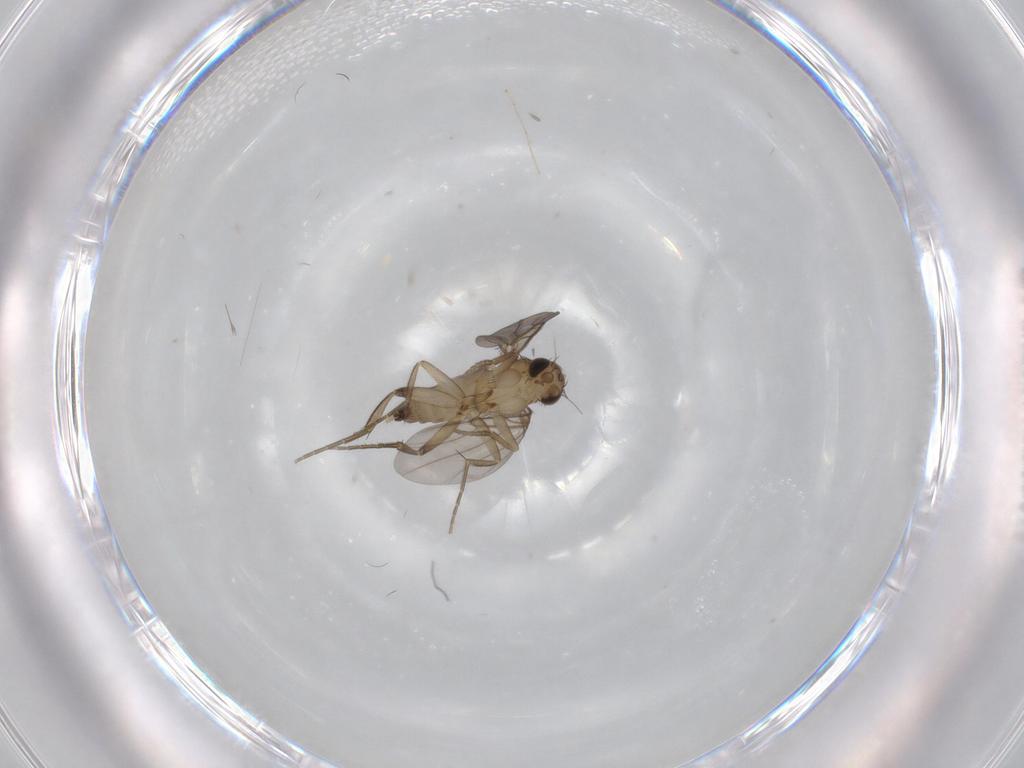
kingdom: Animalia
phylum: Arthropoda
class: Insecta
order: Diptera
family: Phoridae
